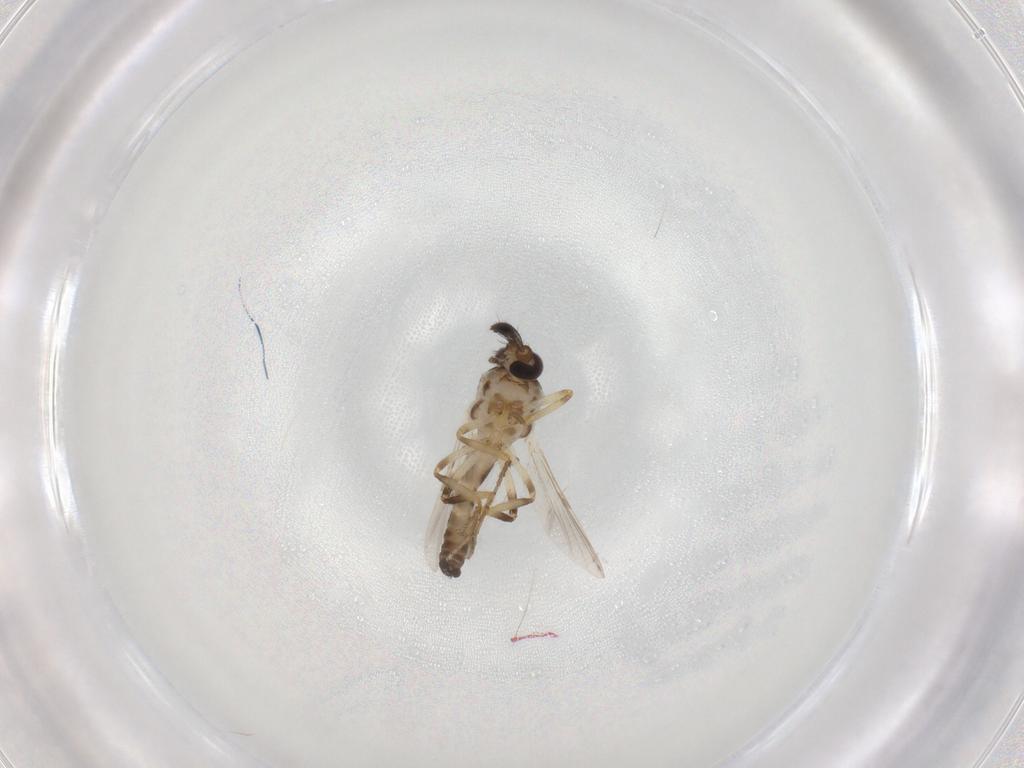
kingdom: Animalia
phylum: Arthropoda
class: Insecta
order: Diptera
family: Ceratopogonidae
